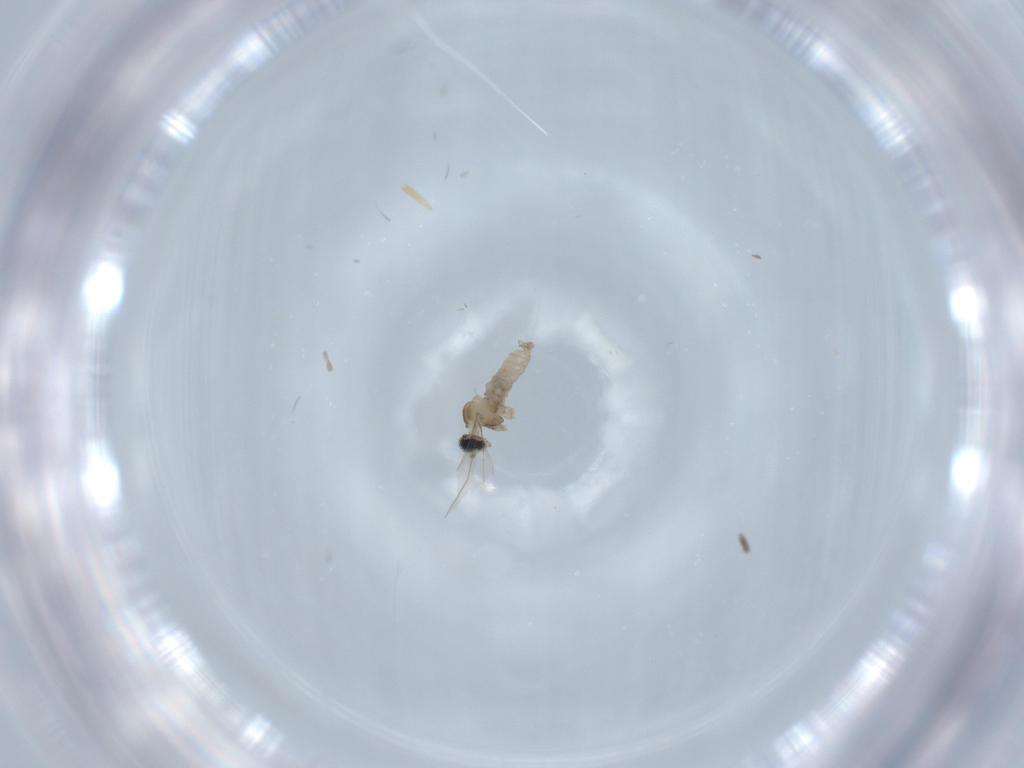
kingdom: Animalia
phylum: Arthropoda
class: Insecta
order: Diptera
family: Cecidomyiidae
